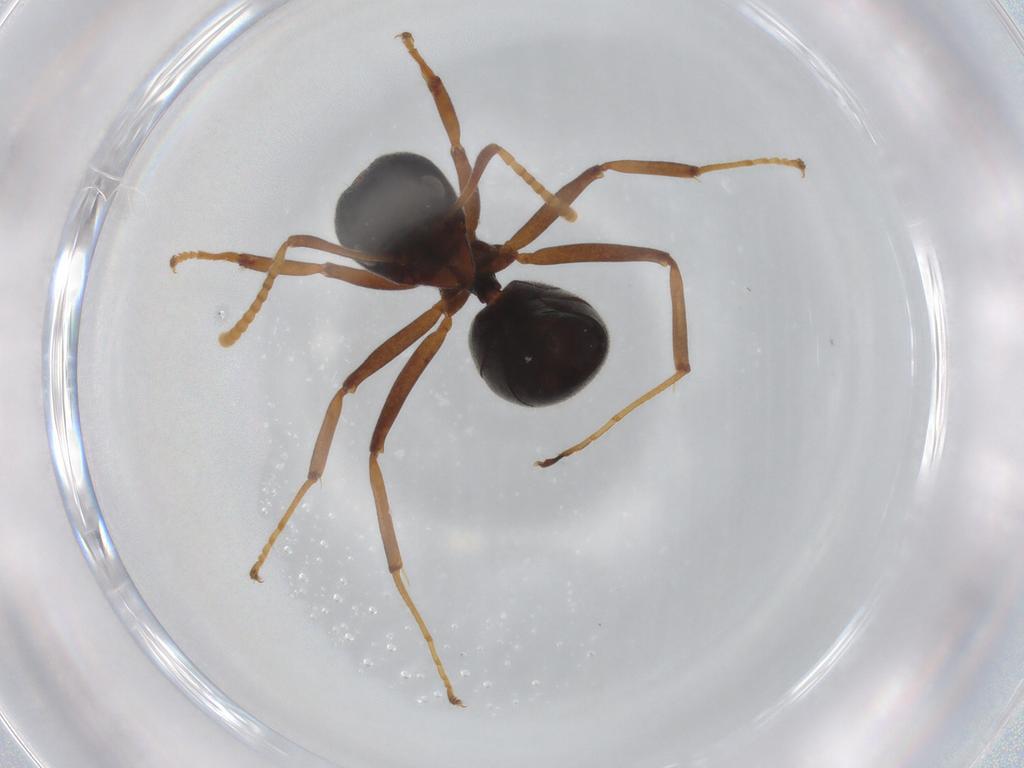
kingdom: Animalia
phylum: Arthropoda
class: Insecta
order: Hymenoptera
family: Formicidae
